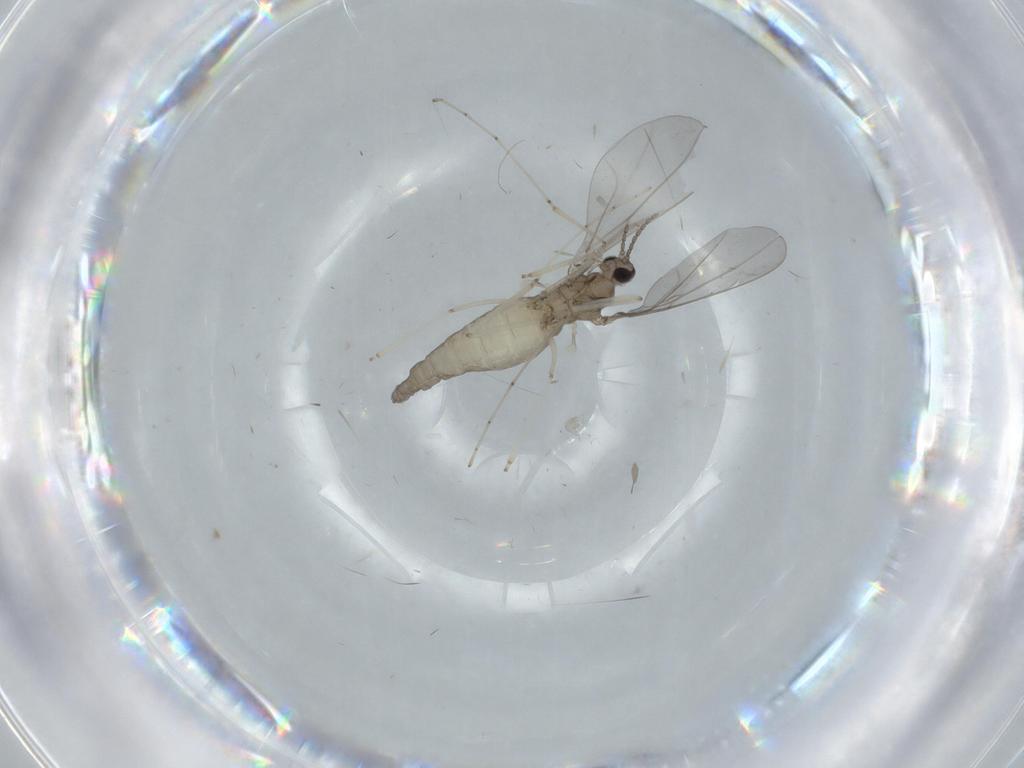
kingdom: Animalia
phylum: Arthropoda
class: Insecta
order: Diptera
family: Cecidomyiidae
